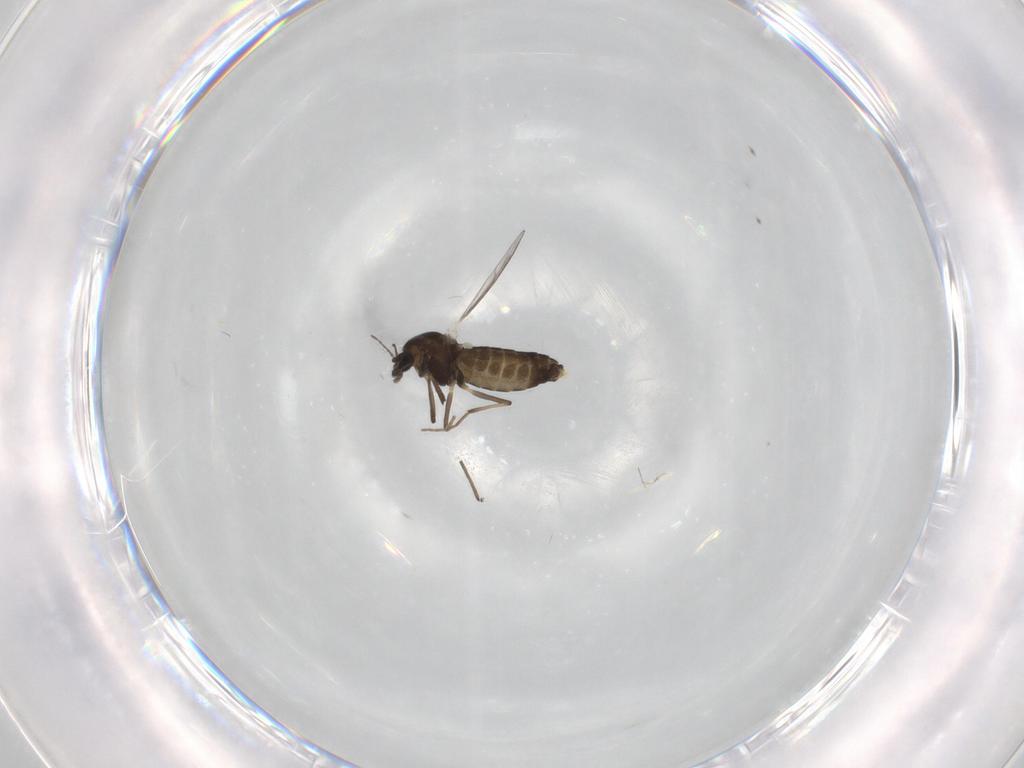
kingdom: Animalia
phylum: Arthropoda
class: Insecta
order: Diptera
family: Chironomidae
